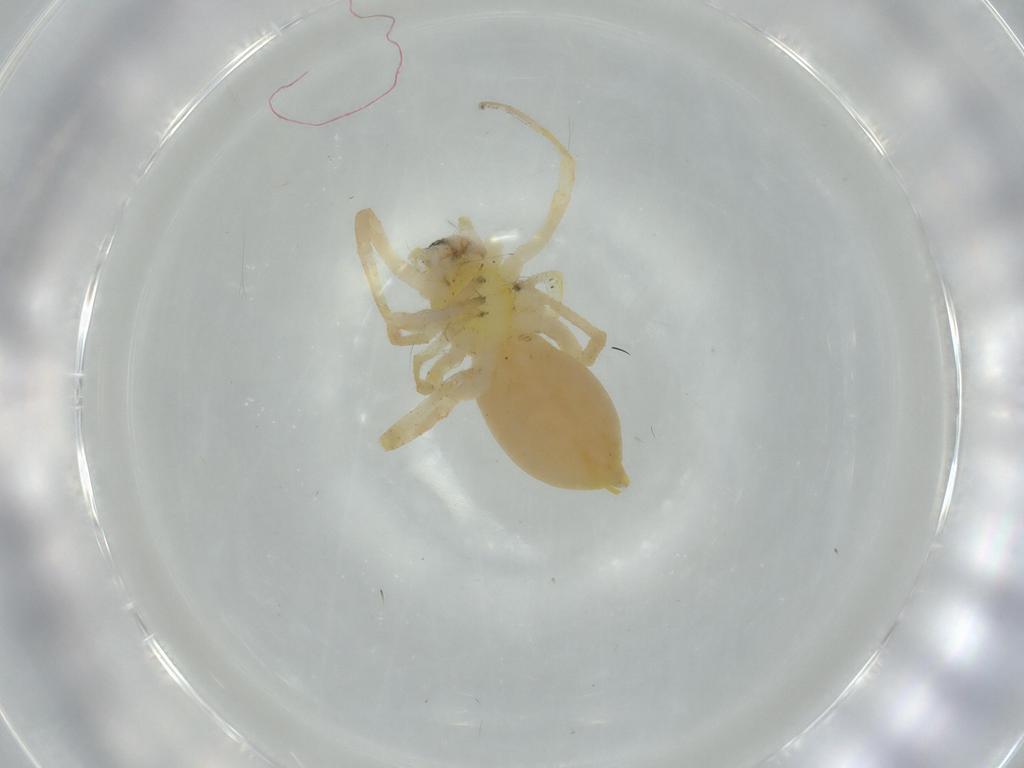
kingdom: Animalia
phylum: Arthropoda
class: Arachnida
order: Araneae
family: Anyphaenidae
